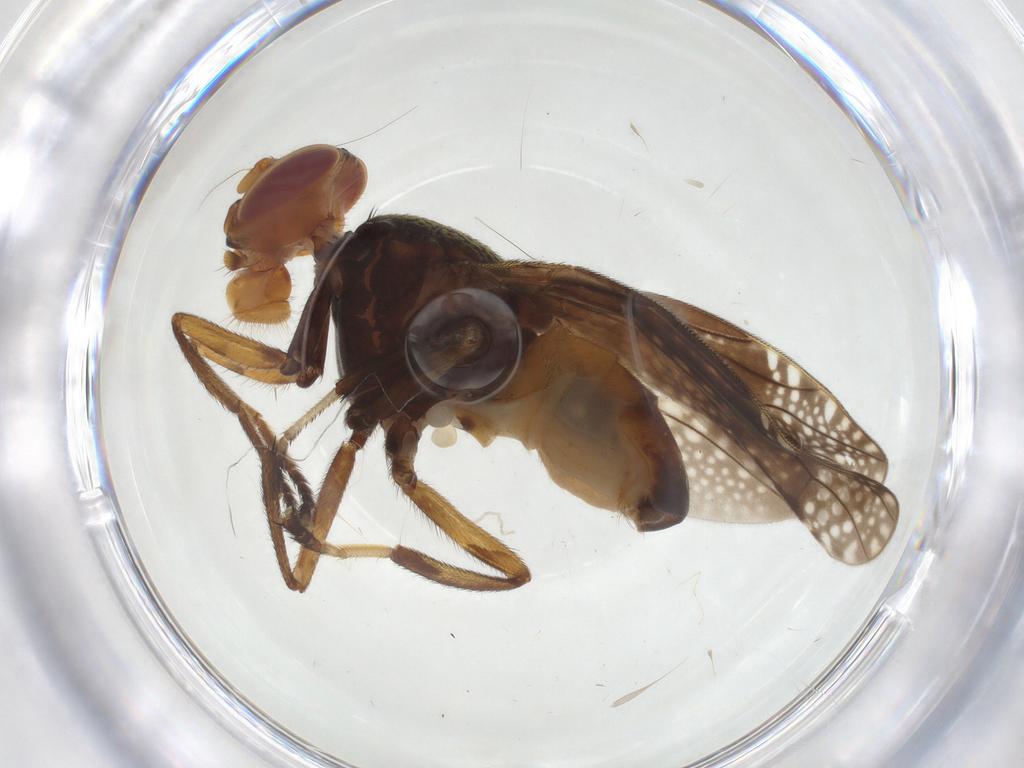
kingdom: Animalia
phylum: Arthropoda
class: Insecta
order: Diptera
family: Platystomatidae
